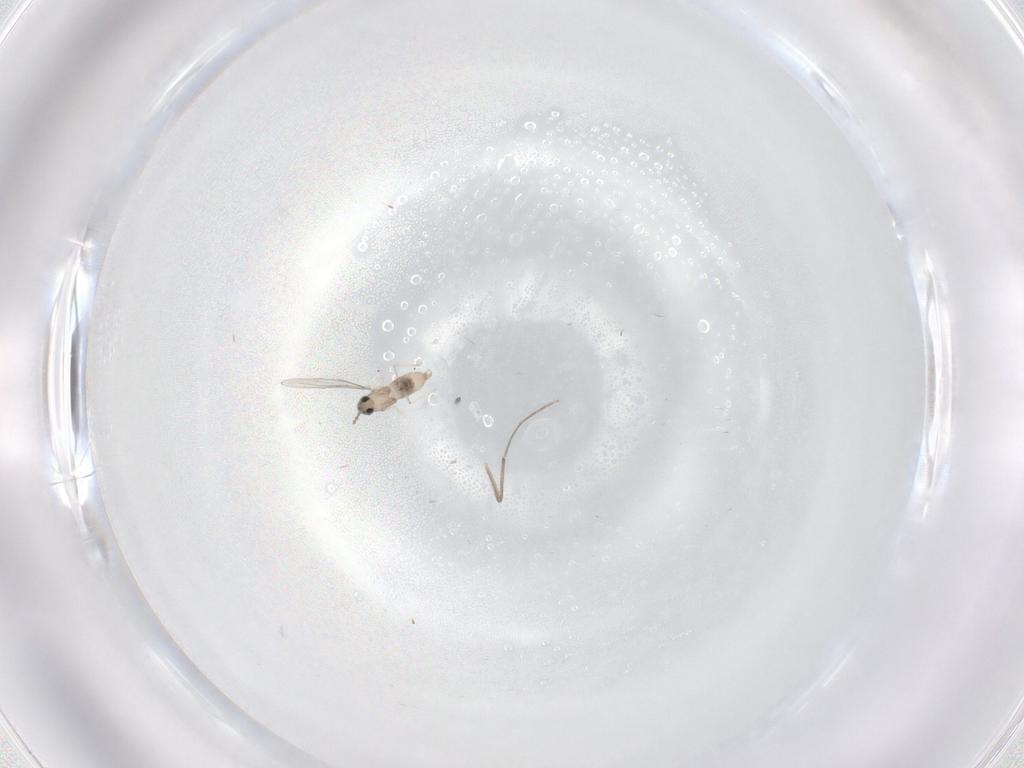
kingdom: Animalia
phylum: Arthropoda
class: Insecta
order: Diptera
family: Cecidomyiidae
